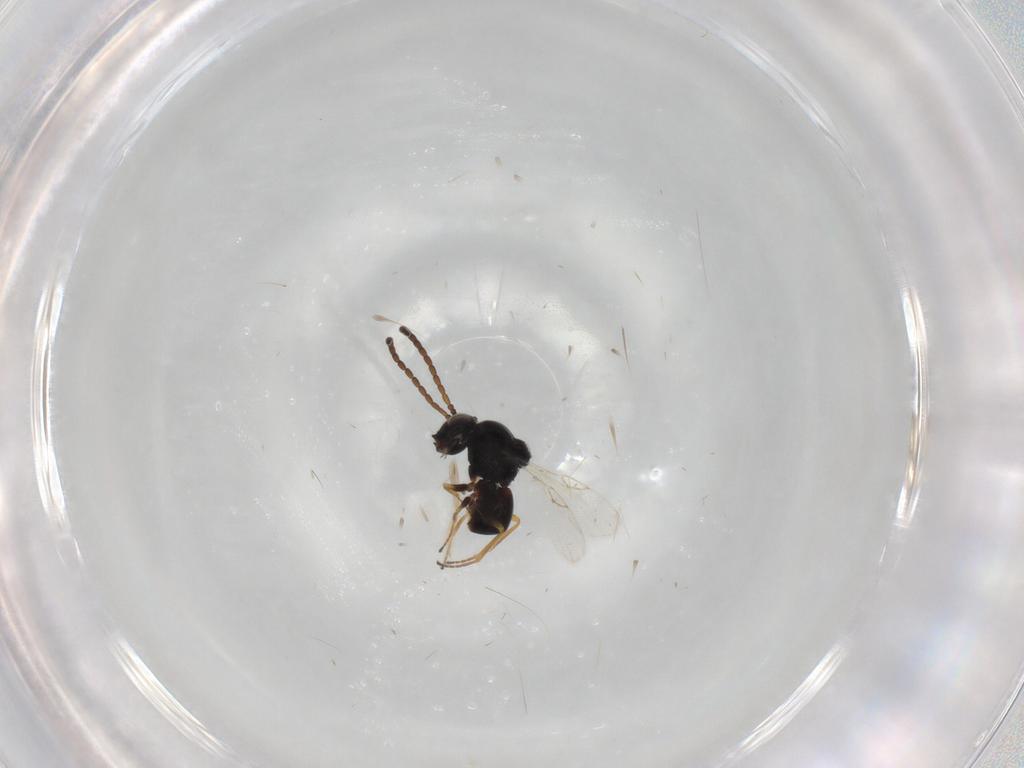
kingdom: Animalia
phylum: Arthropoda
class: Insecta
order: Hymenoptera
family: Figitidae
